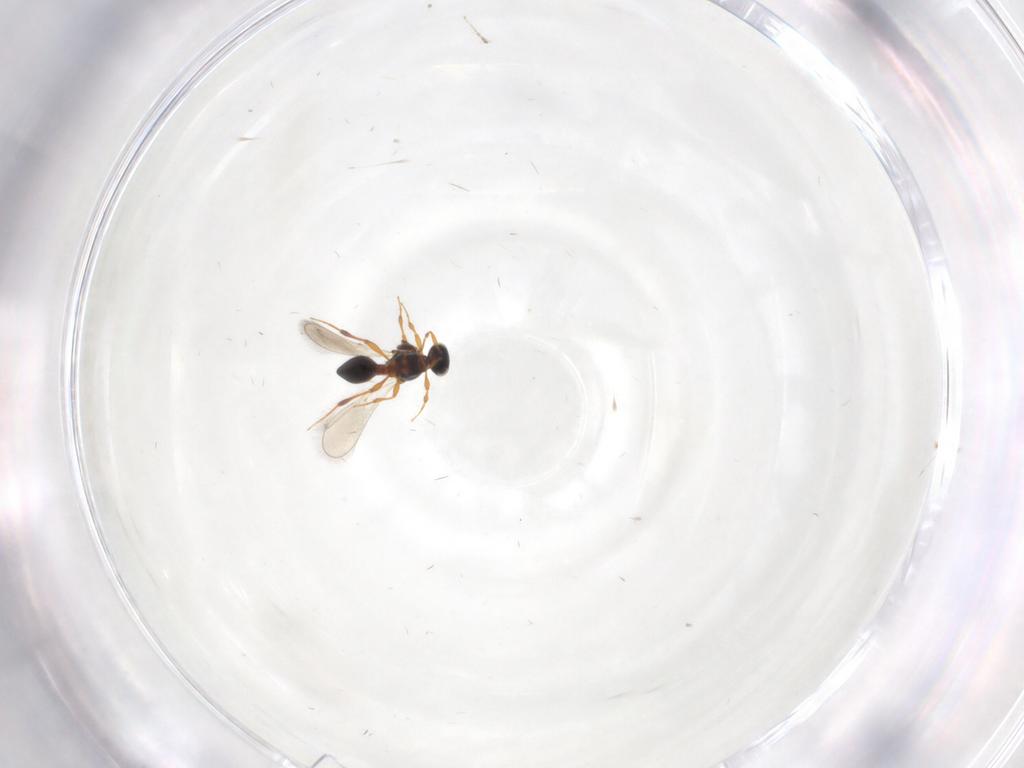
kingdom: Animalia
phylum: Arthropoda
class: Insecta
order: Hymenoptera
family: Platygastridae
